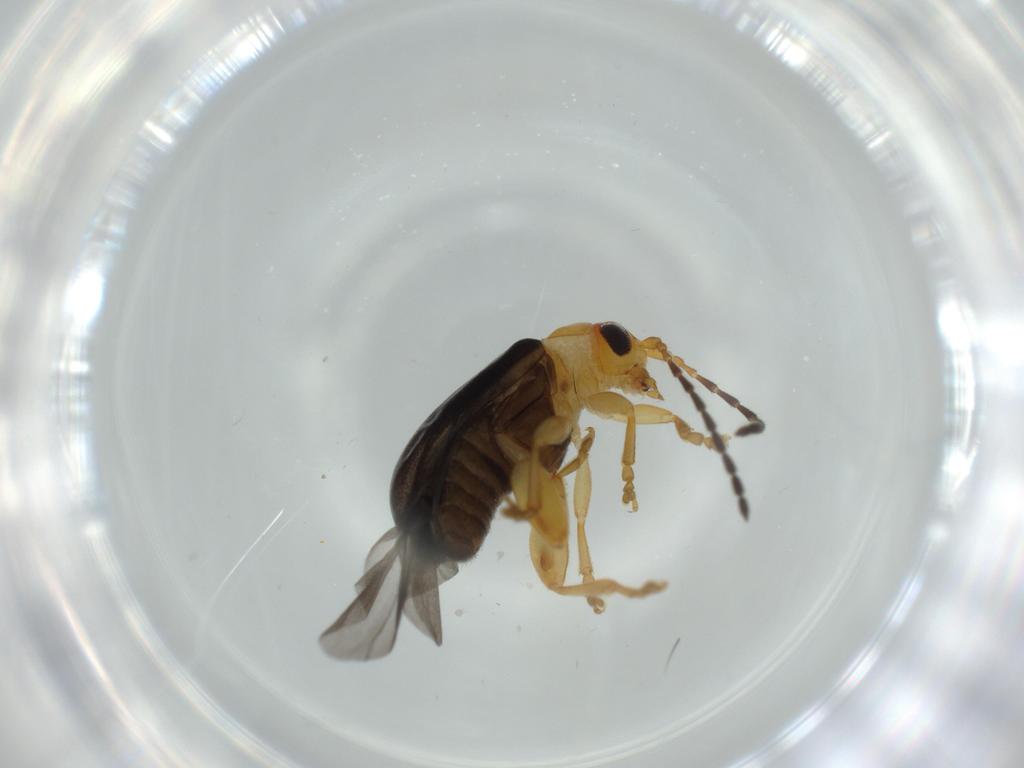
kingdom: Animalia
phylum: Arthropoda
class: Insecta
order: Coleoptera
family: Chrysomelidae
